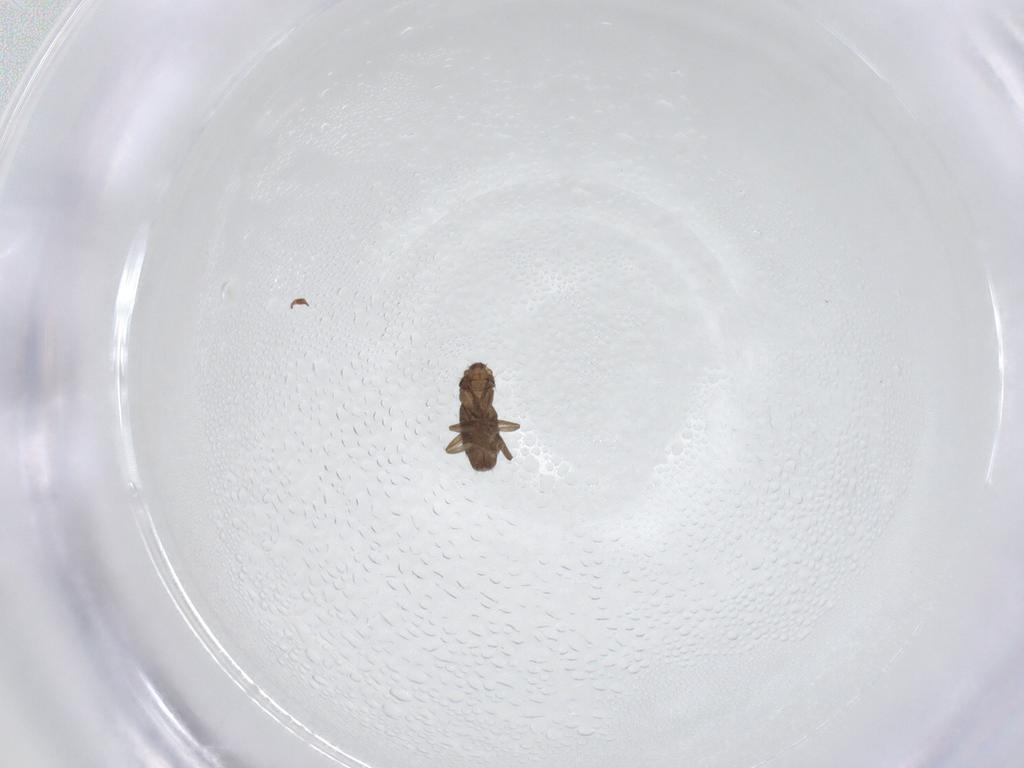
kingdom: Animalia
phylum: Arthropoda
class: Insecta
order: Diptera
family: Phoridae
